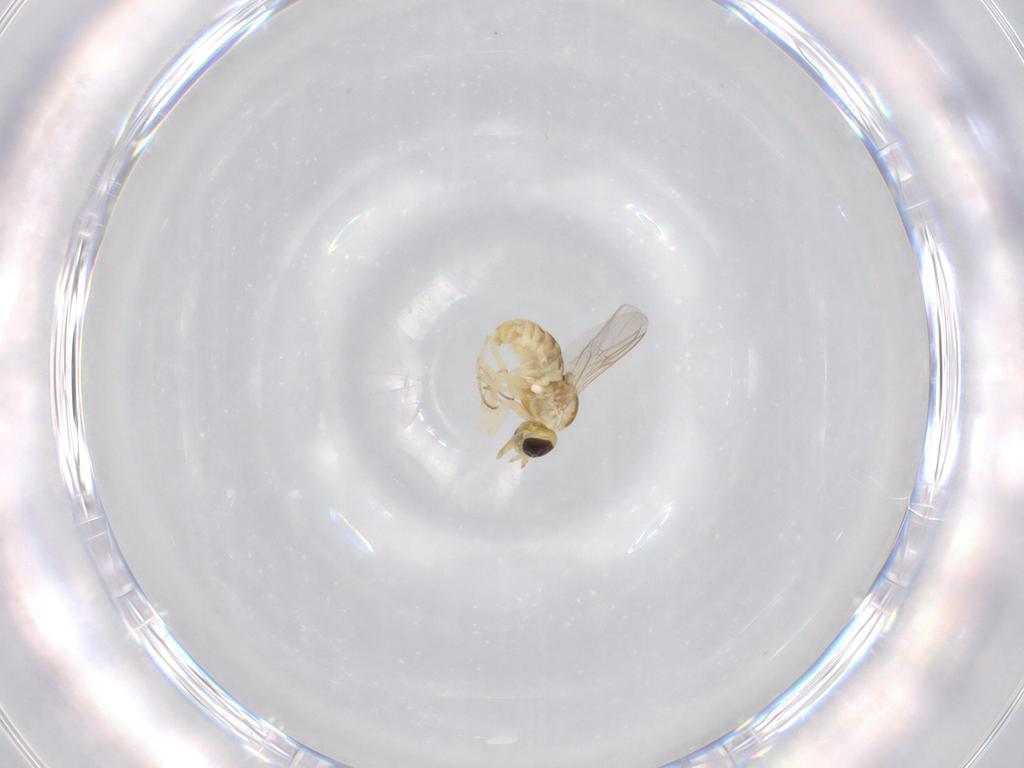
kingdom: Animalia
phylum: Arthropoda
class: Insecta
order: Diptera
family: Mythicomyiidae
